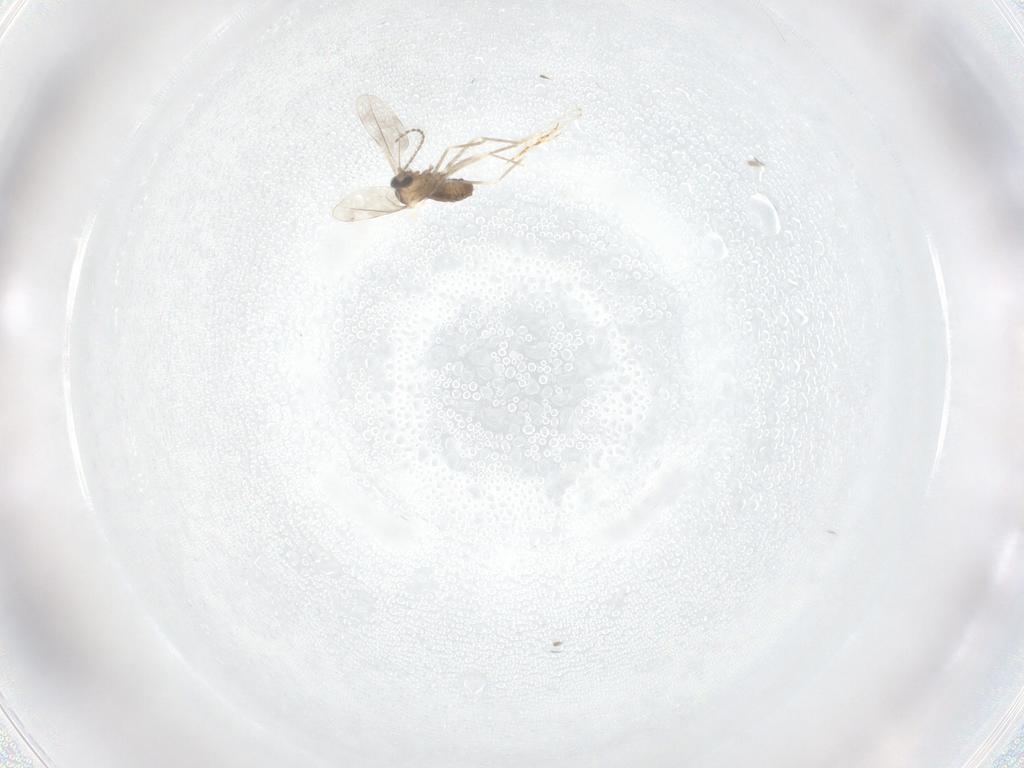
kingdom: Animalia
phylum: Arthropoda
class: Insecta
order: Diptera
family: Cecidomyiidae
